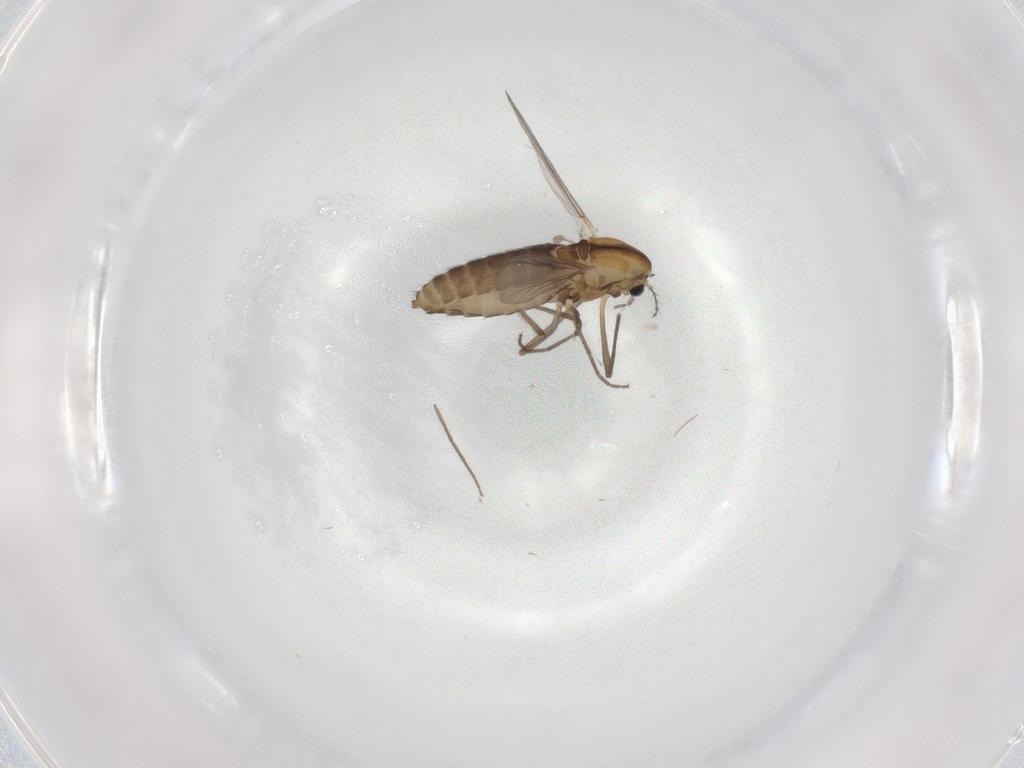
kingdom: Animalia
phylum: Arthropoda
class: Insecta
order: Diptera
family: Chironomidae
